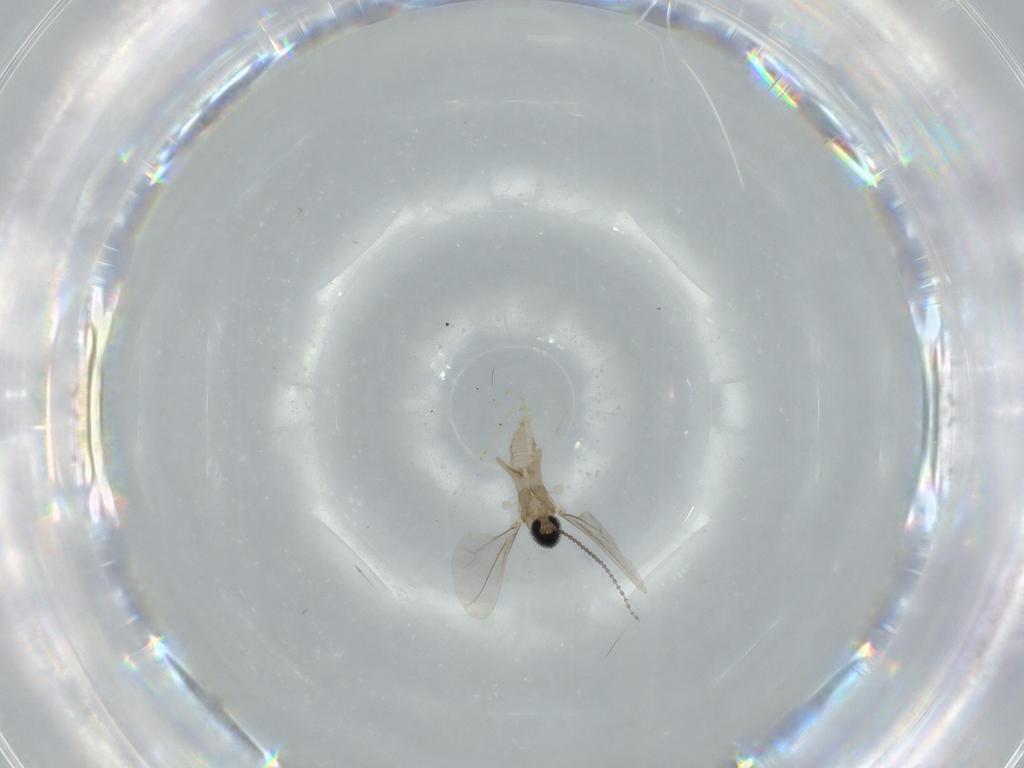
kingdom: Animalia
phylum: Arthropoda
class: Insecta
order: Diptera
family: Cecidomyiidae
